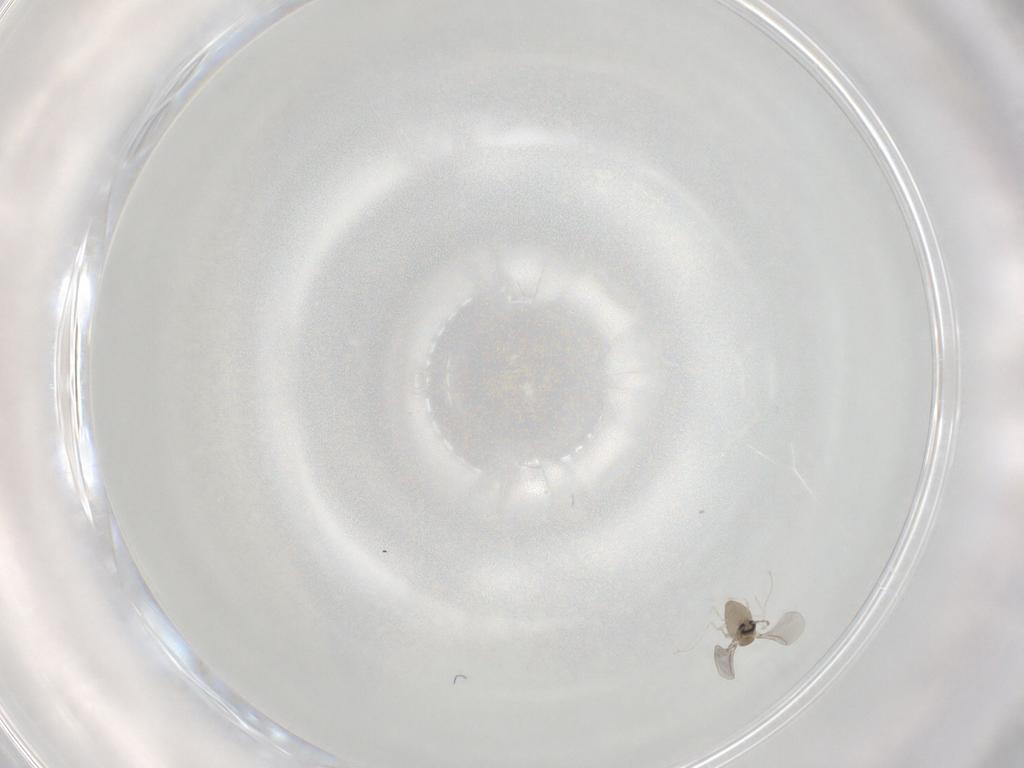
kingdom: Animalia
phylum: Arthropoda
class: Insecta
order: Diptera
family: Cecidomyiidae
